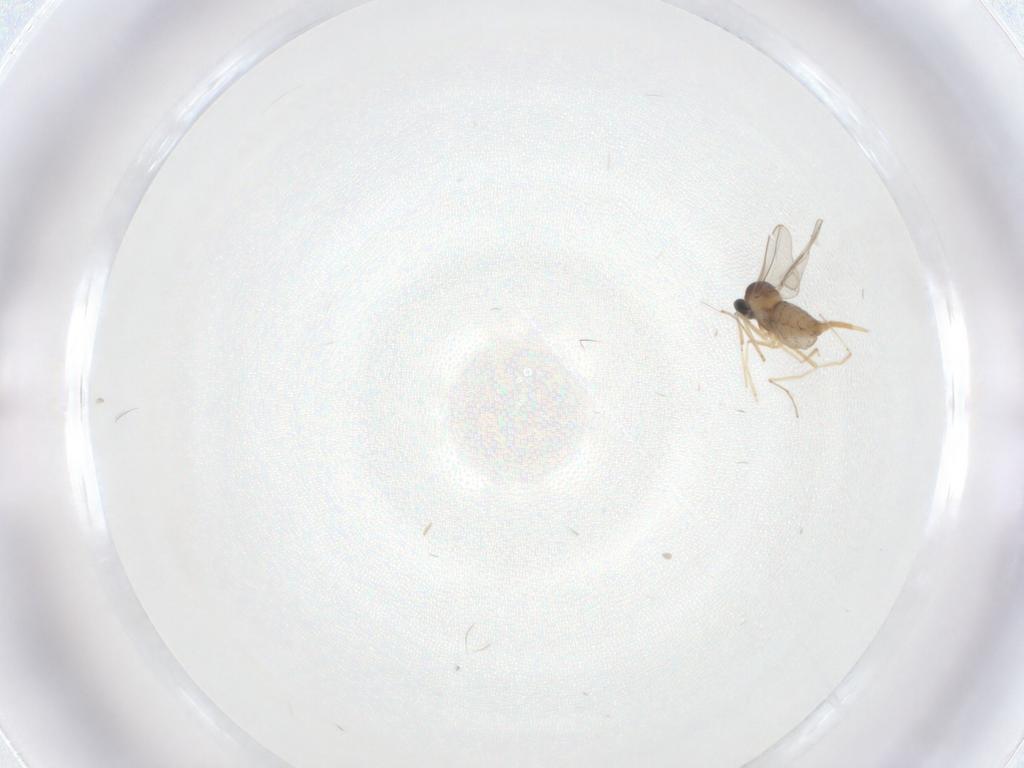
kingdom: Animalia
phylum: Arthropoda
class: Insecta
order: Diptera
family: Cecidomyiidae
